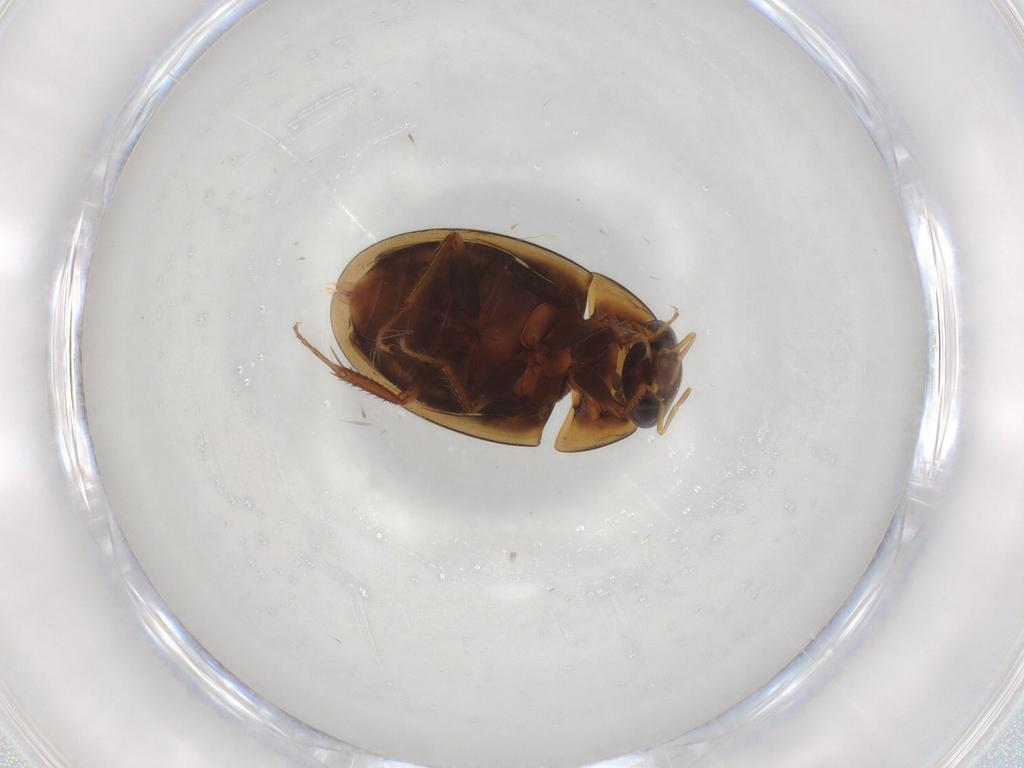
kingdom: Animalia
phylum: Arthropoda
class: Insecta
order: Coleoptera
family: Hydrophilidae
